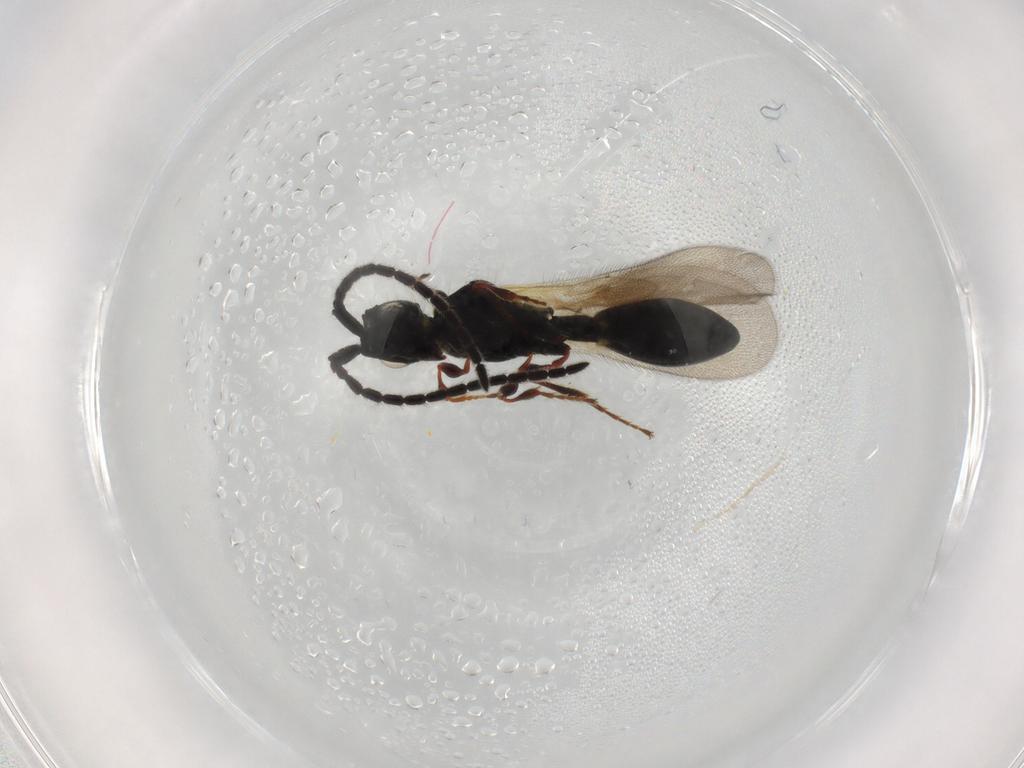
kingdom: Animalia
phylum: Arthropoda
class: Insecta
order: Hymenoptera
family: Diapriidae
